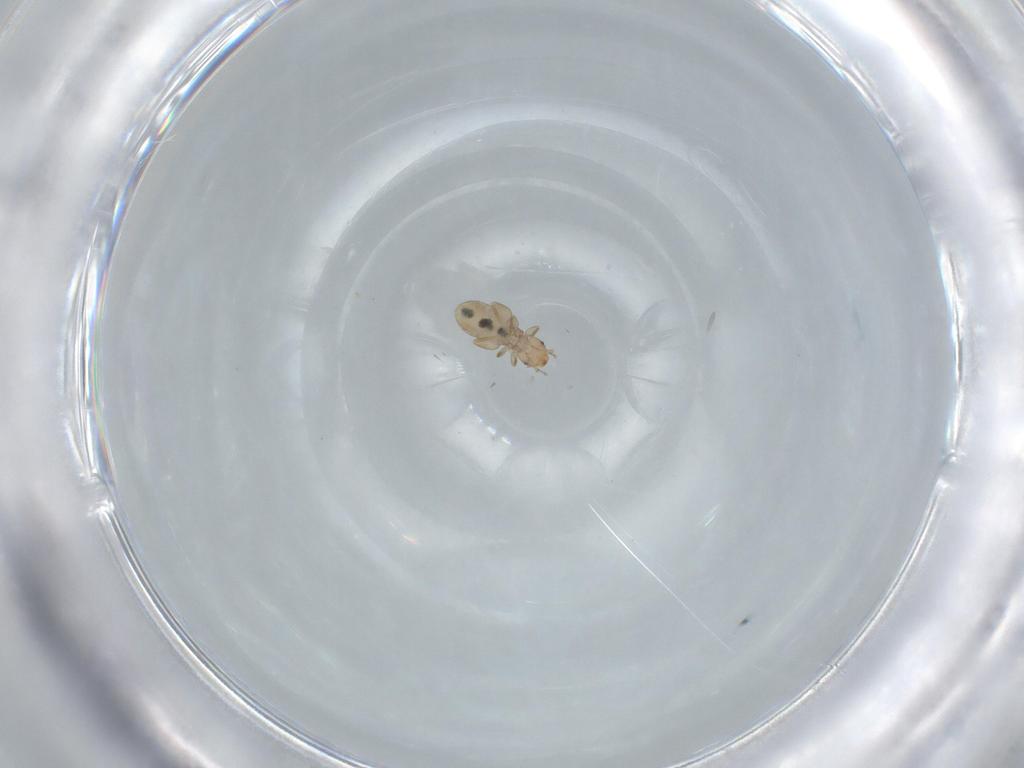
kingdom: Animalia
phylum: Arthropoda
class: Insecta
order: Psocodea
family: Liposcelididae
